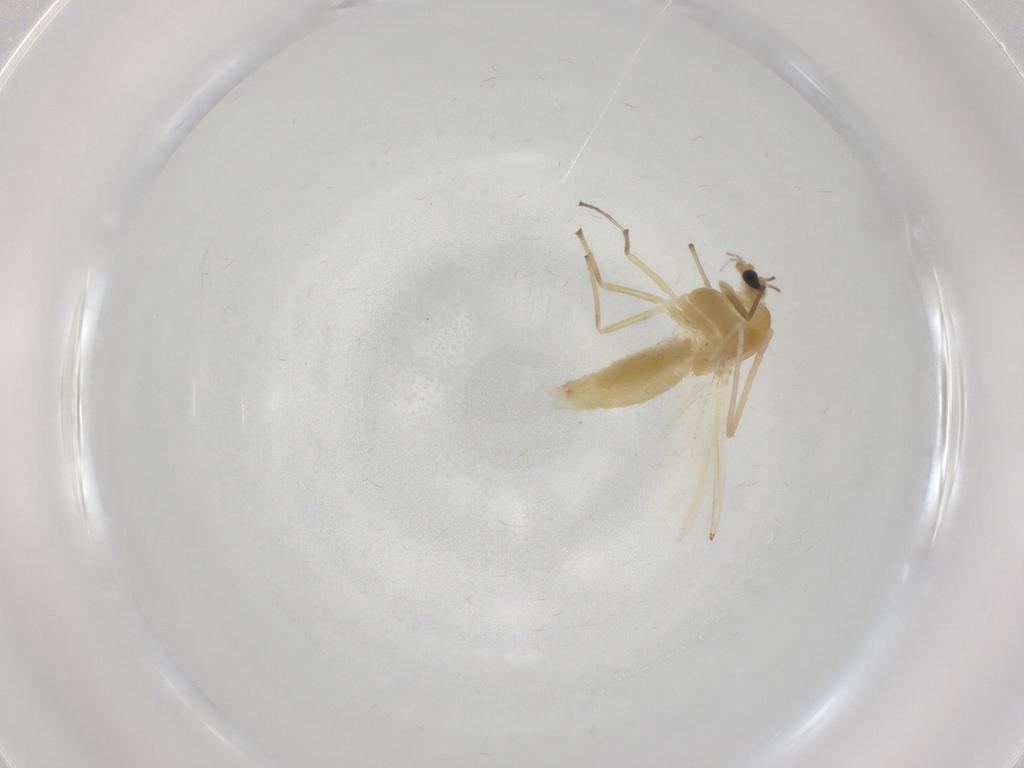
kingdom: Animalia
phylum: Arthropoda
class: Insecta
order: Diptera
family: Chironomidae
